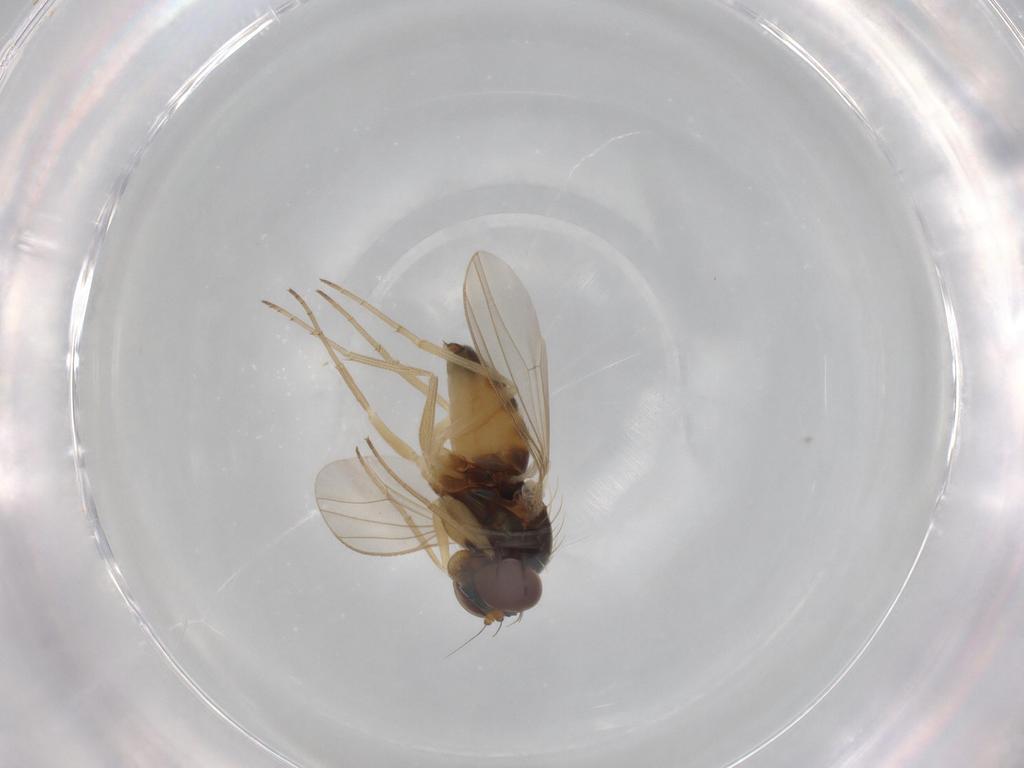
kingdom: Animalia
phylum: Arthropoda
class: Insecta
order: Diptera
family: Dolichopodidae
